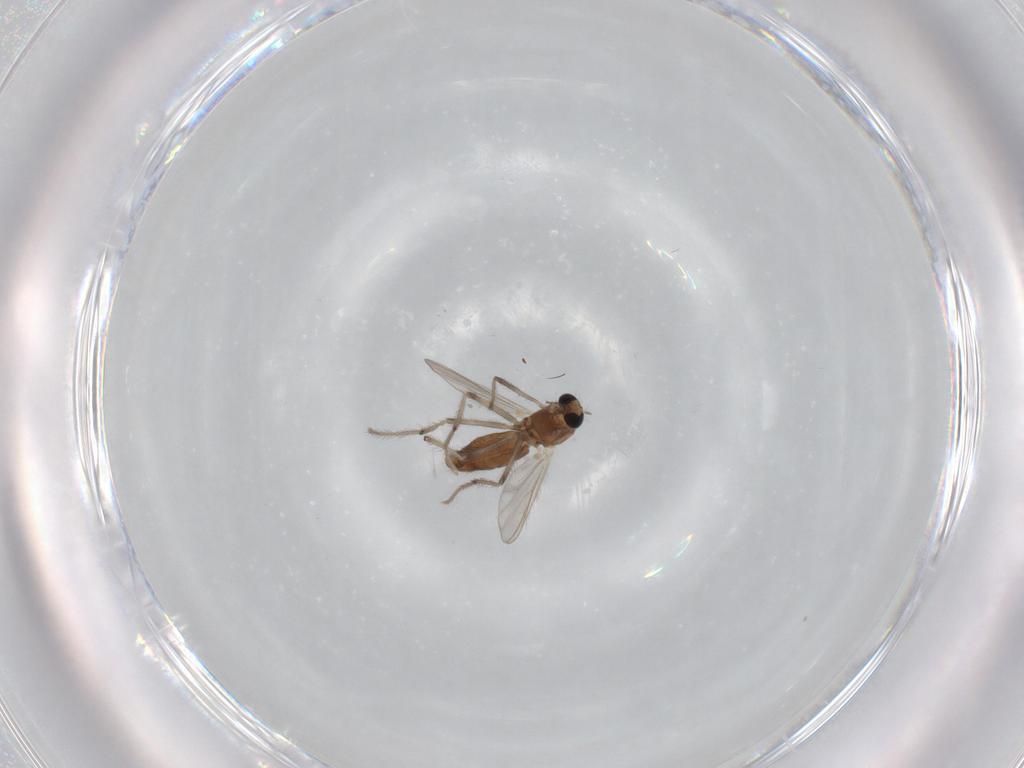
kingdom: Animalia
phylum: Arthropoda
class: Insecta
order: Diptera
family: Chironomidae
